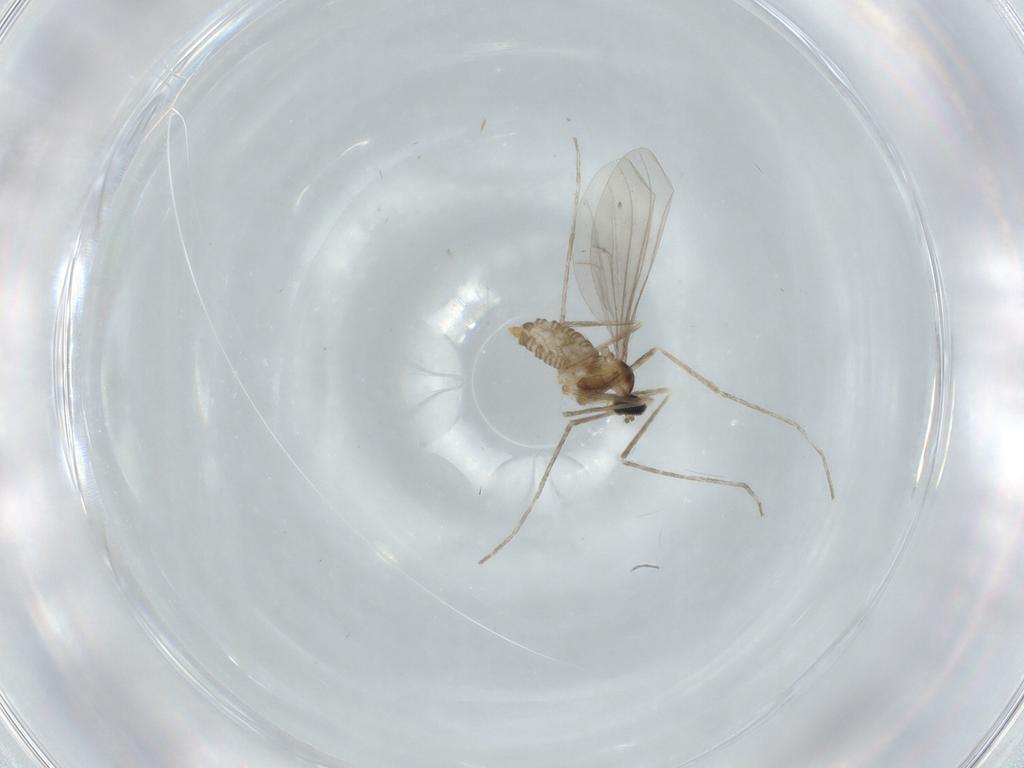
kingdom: Animalia
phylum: Arthropoda
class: Insecta
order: Diptera
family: Cecidomyiidae
